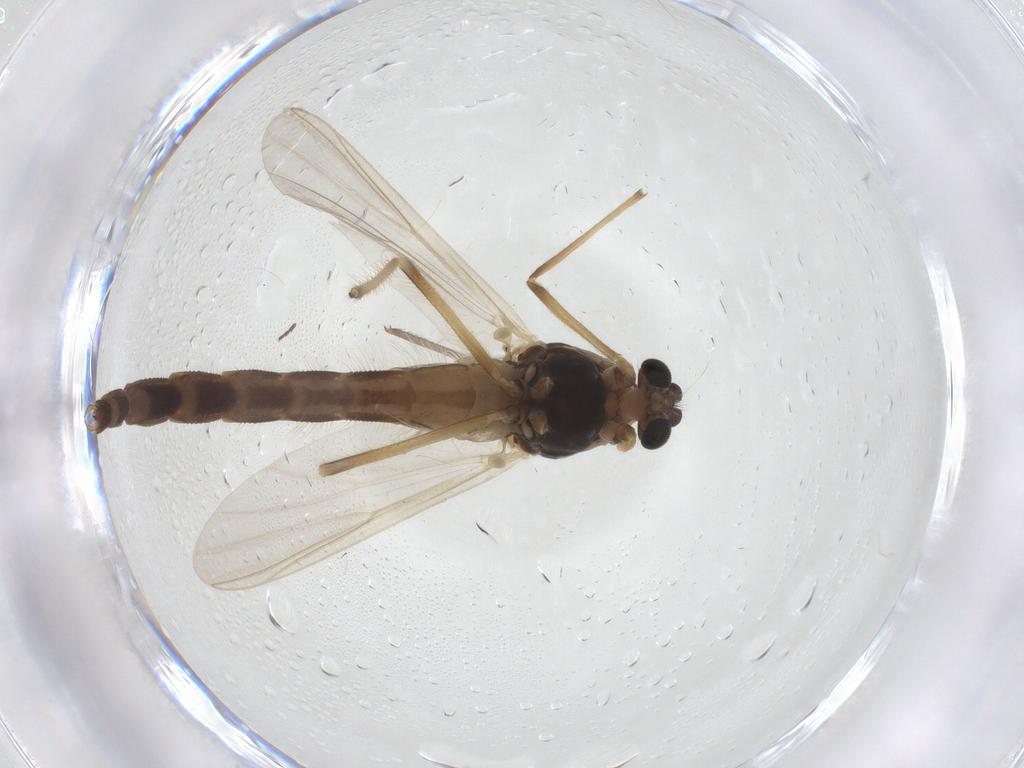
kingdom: Animalia
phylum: Arthropoda
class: Insecta
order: Diptera
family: Chironomidae
